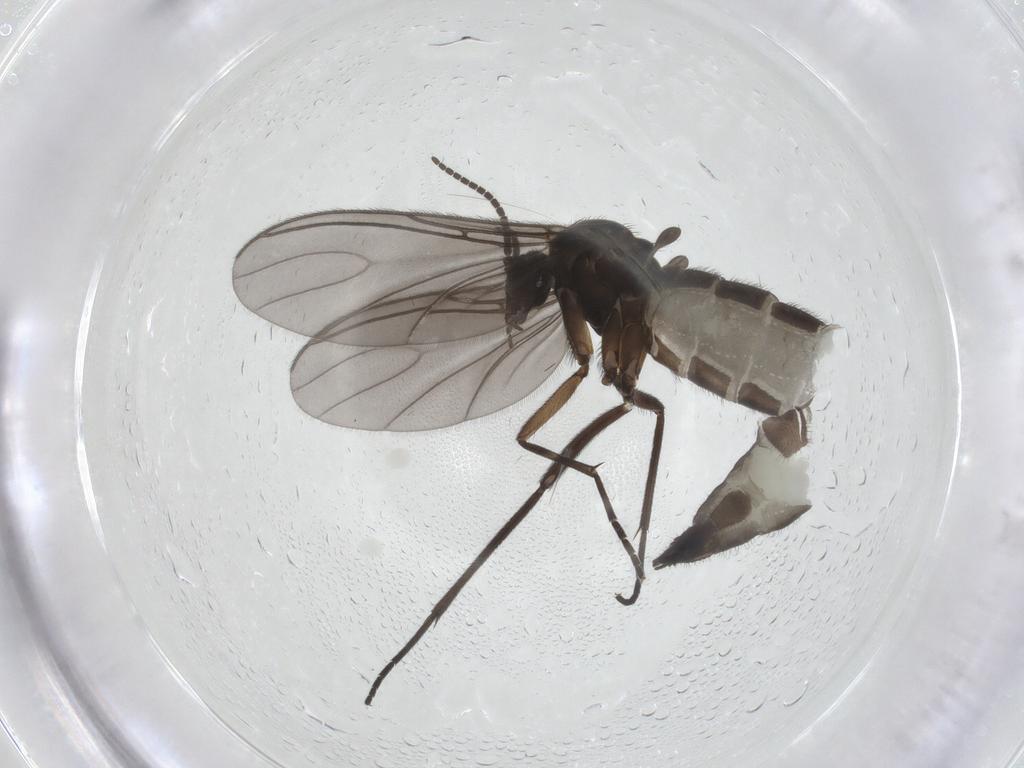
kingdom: Animalia
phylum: Arthropoda
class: Insecta
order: Diptera
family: Sciaridae
